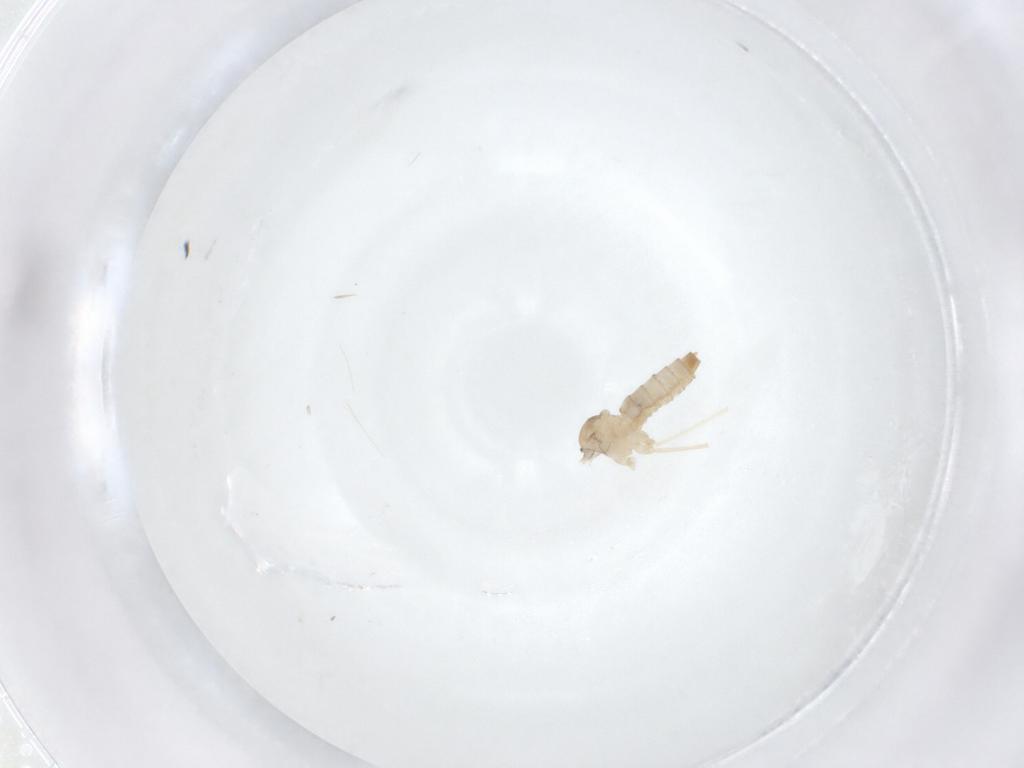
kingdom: Animalia
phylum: Arthropoda
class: Insecta
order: Diptera
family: Cecidomyiidae
